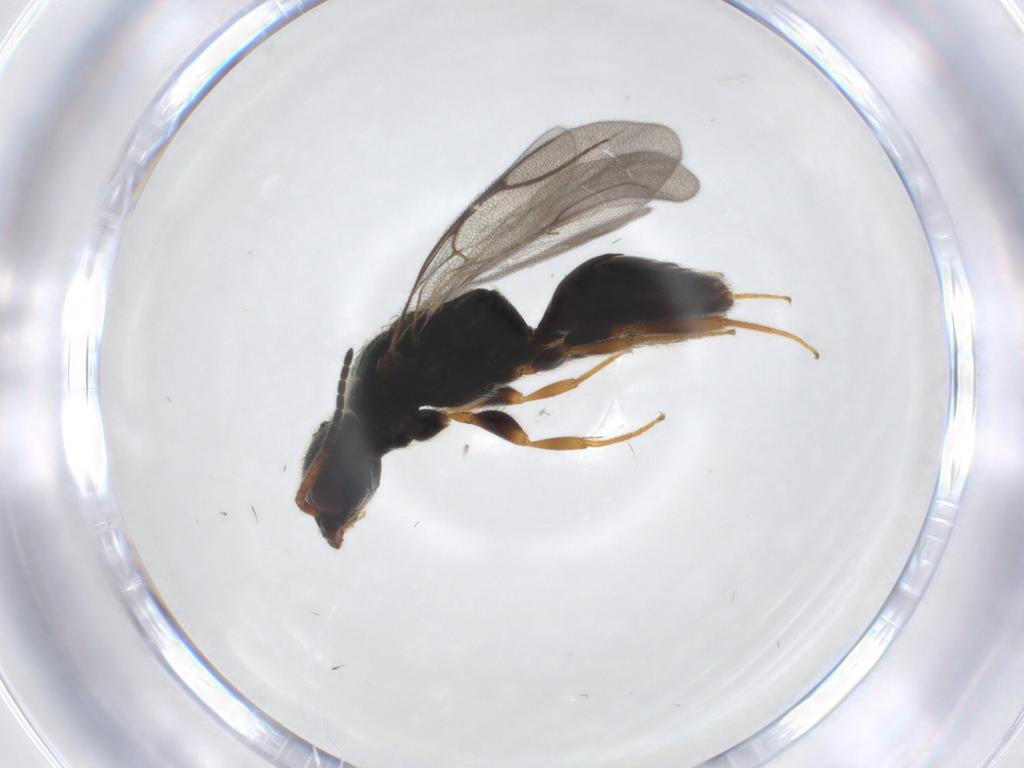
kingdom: Animalia
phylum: Arthropoda
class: Insecta
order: Hymenoptera
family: Bethylidae
